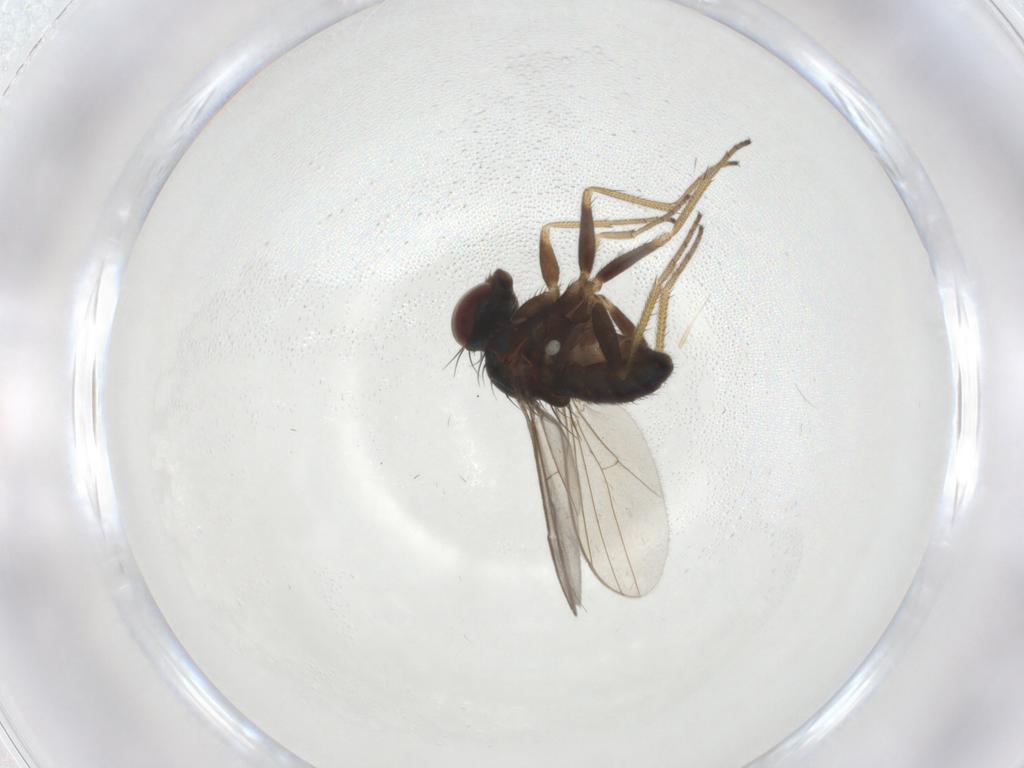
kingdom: Animalia
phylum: Arthropoda
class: Insecta
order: Diptera
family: Dolichopodidae
